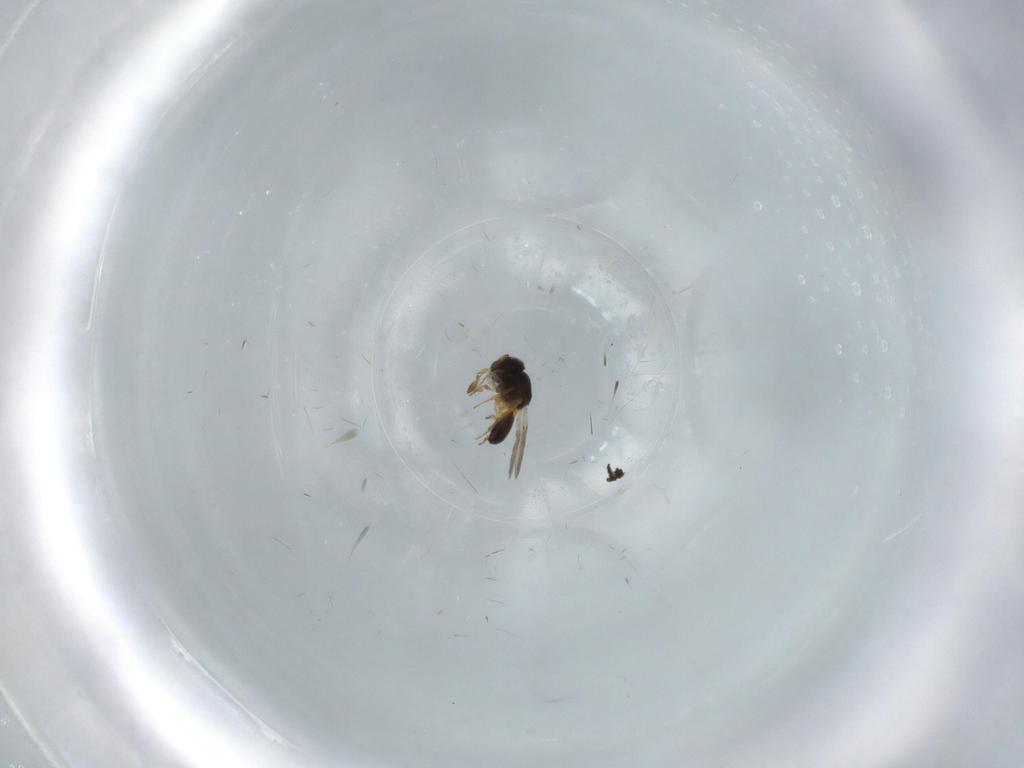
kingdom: Animalia
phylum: Arthropoda
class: Insecta
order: Hymenoptera
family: Scelionidae
